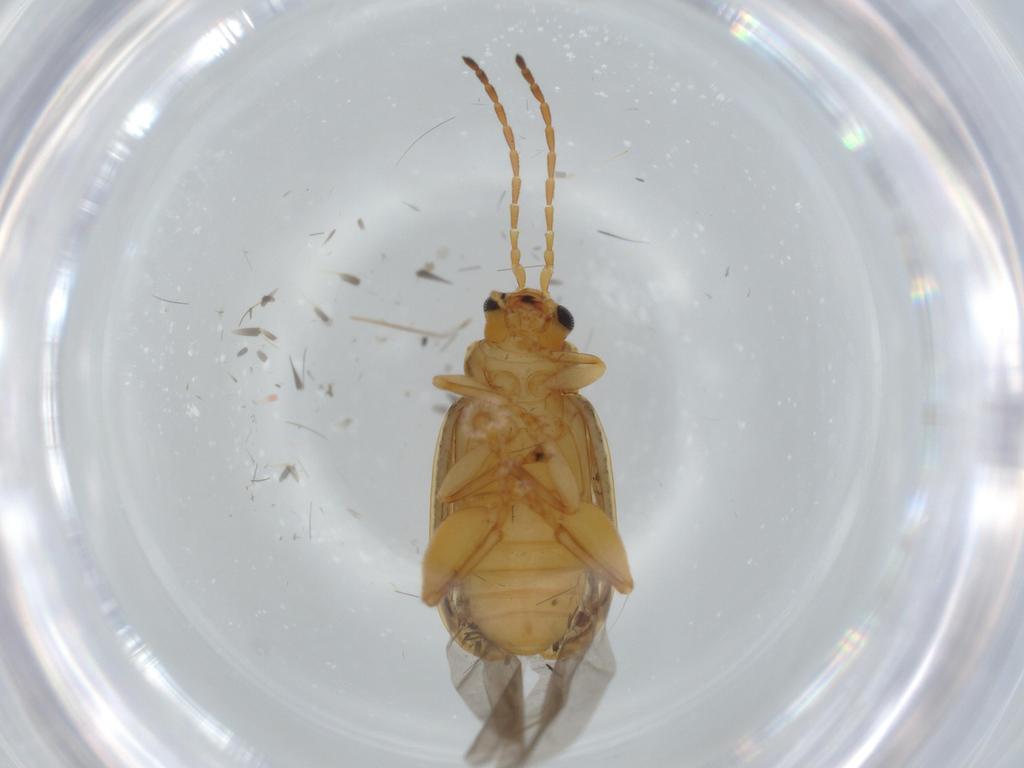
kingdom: Animalia
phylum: Arthropoda
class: Insecta
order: Coleoptera
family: Chrysomelidae
